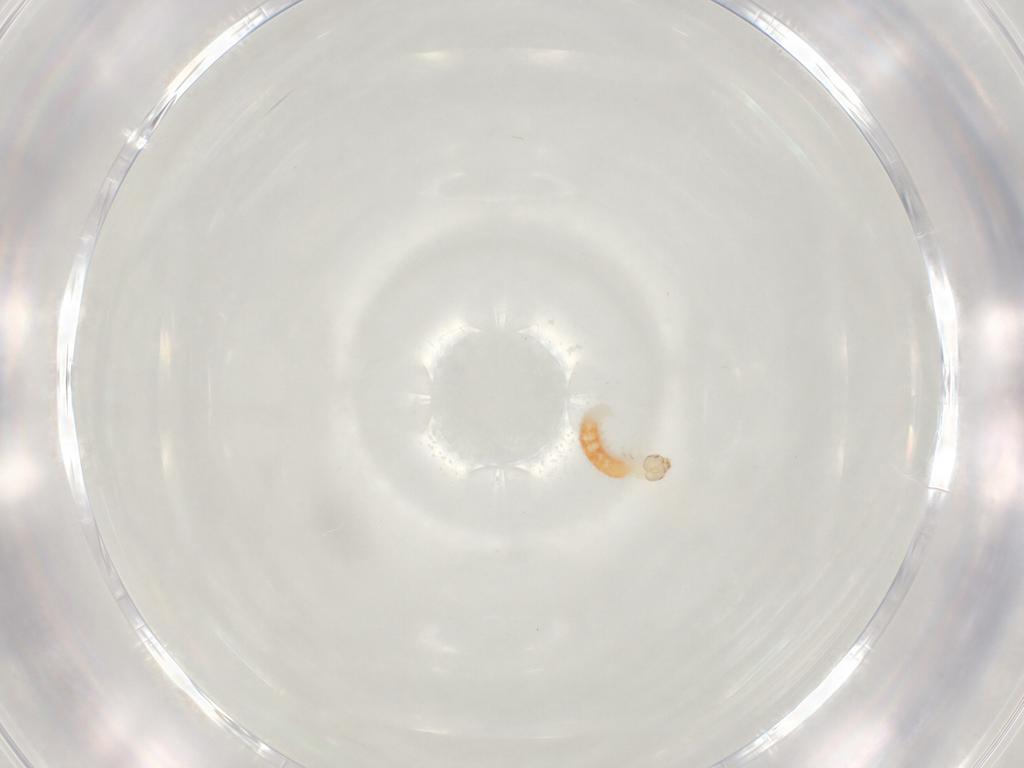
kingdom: Animalia
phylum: Arthropoda
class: Insecta
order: Lepidoptera
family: Crambidae
